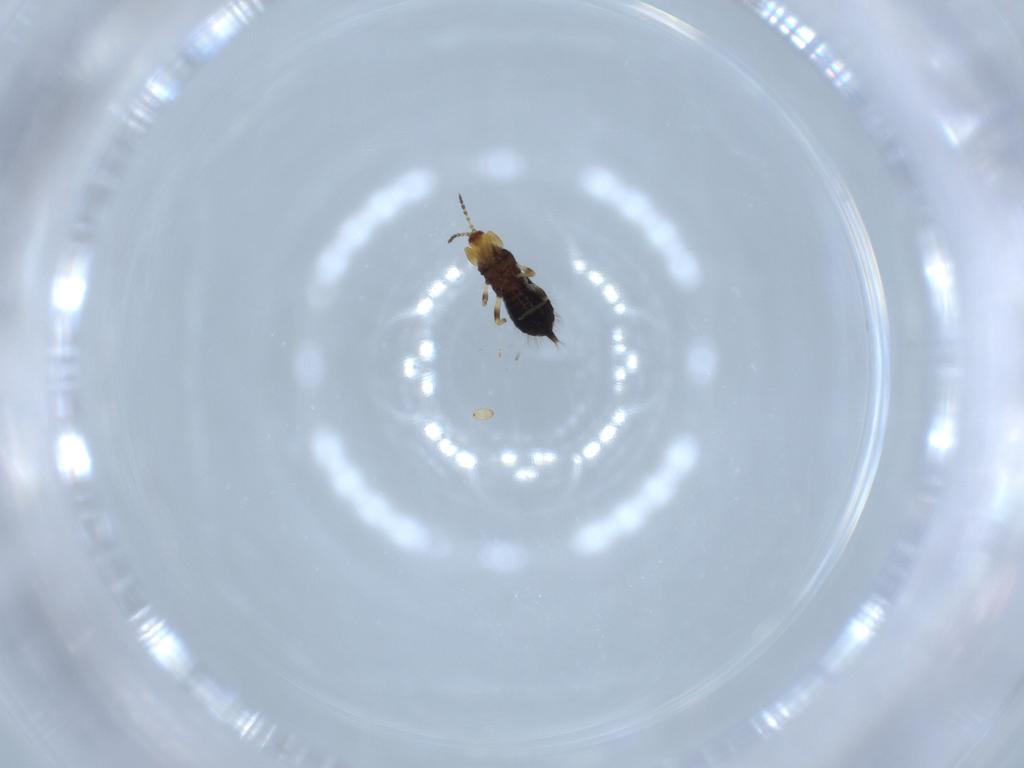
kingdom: Animalia
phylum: Arthropoda
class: Insecta
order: Thysanoptera
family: Phlaeothripidae
